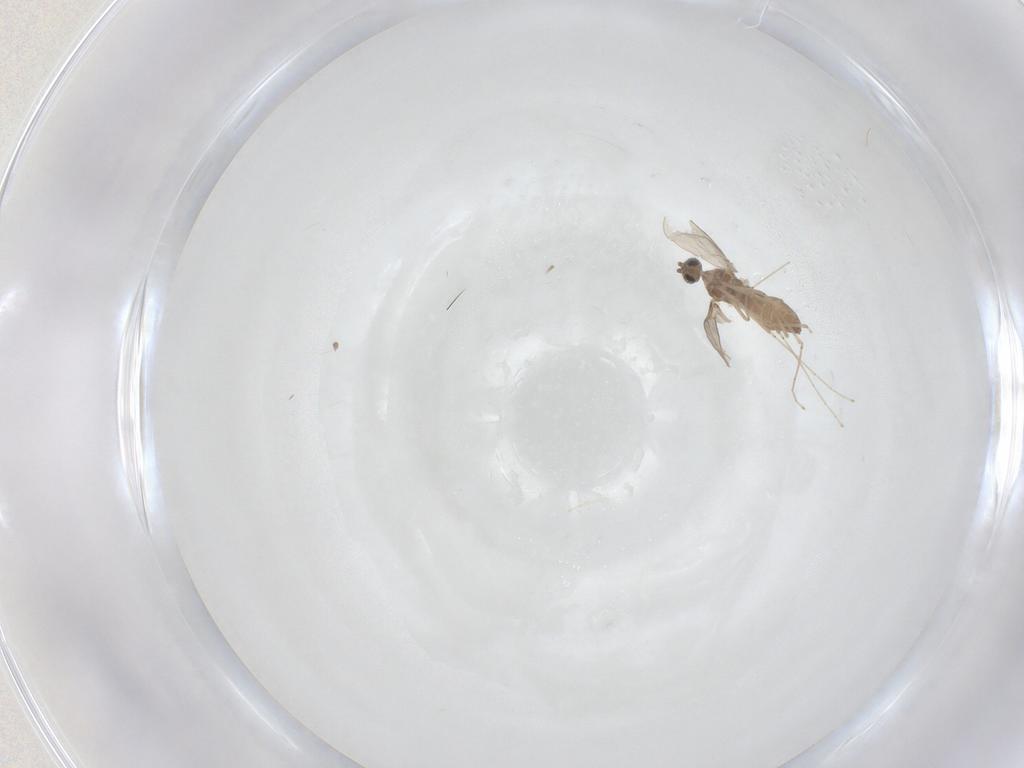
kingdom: Animalia
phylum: Arthropoda
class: Insecta
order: Diptera
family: Cecidomyiidae
